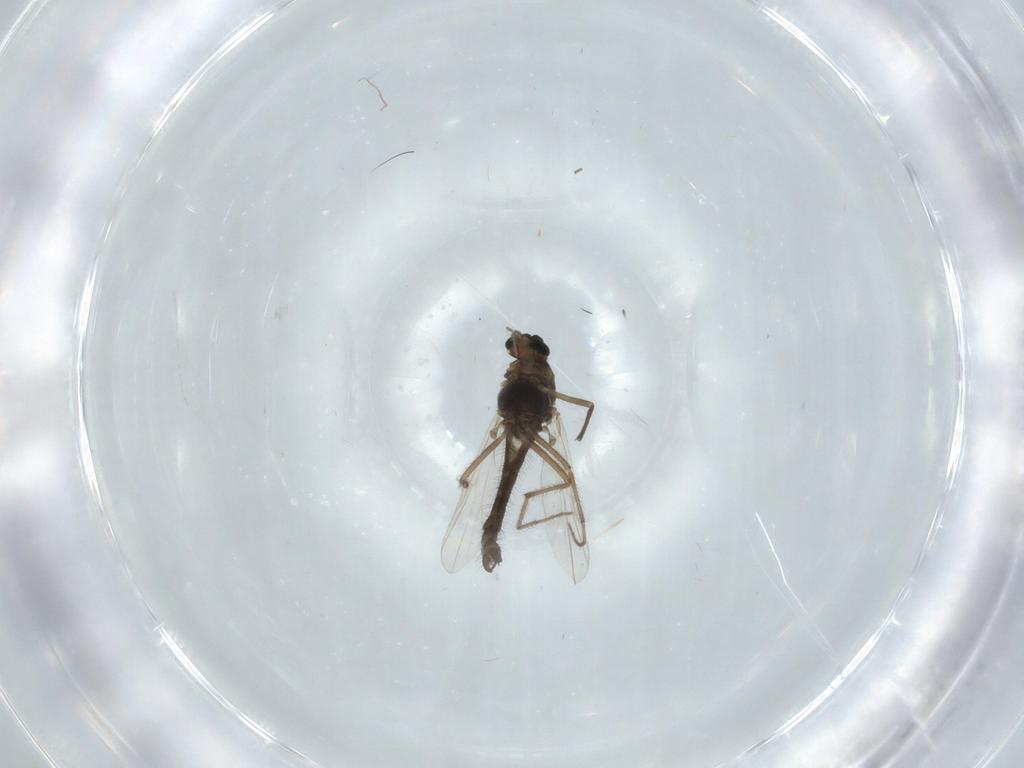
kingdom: Animalia
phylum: Arthropoda
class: Insecta
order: Diptera
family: Chironomidae
